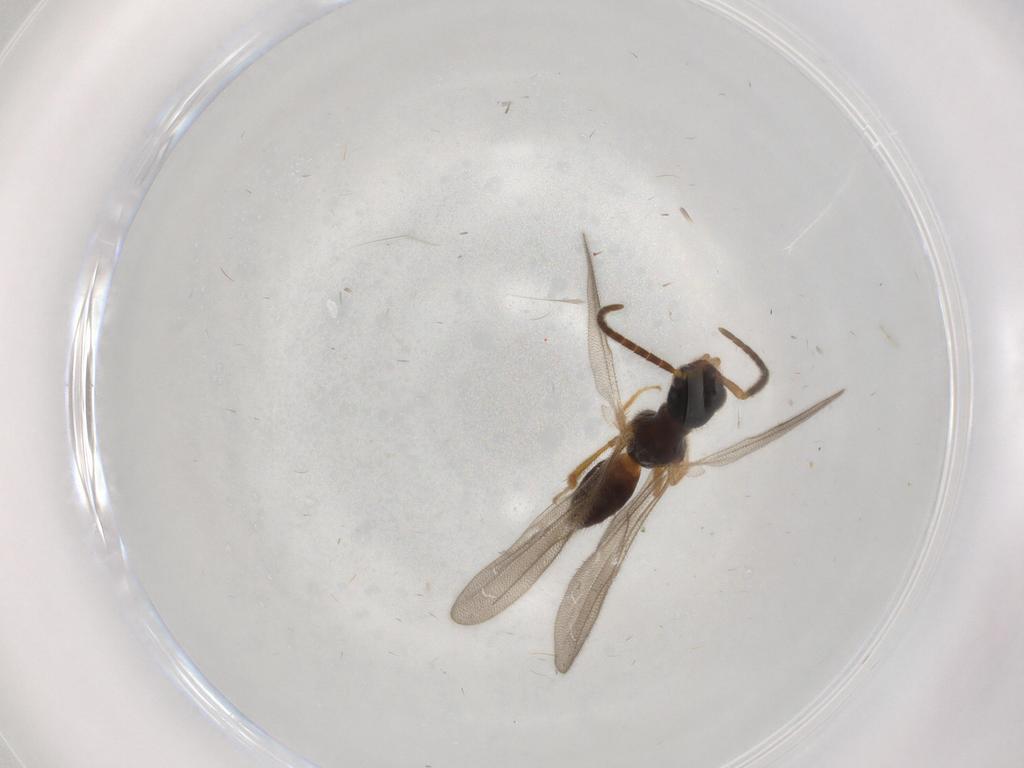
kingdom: Animalia
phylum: Arthropoda
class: Insecta
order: Hymenoptera
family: Bethylidae
